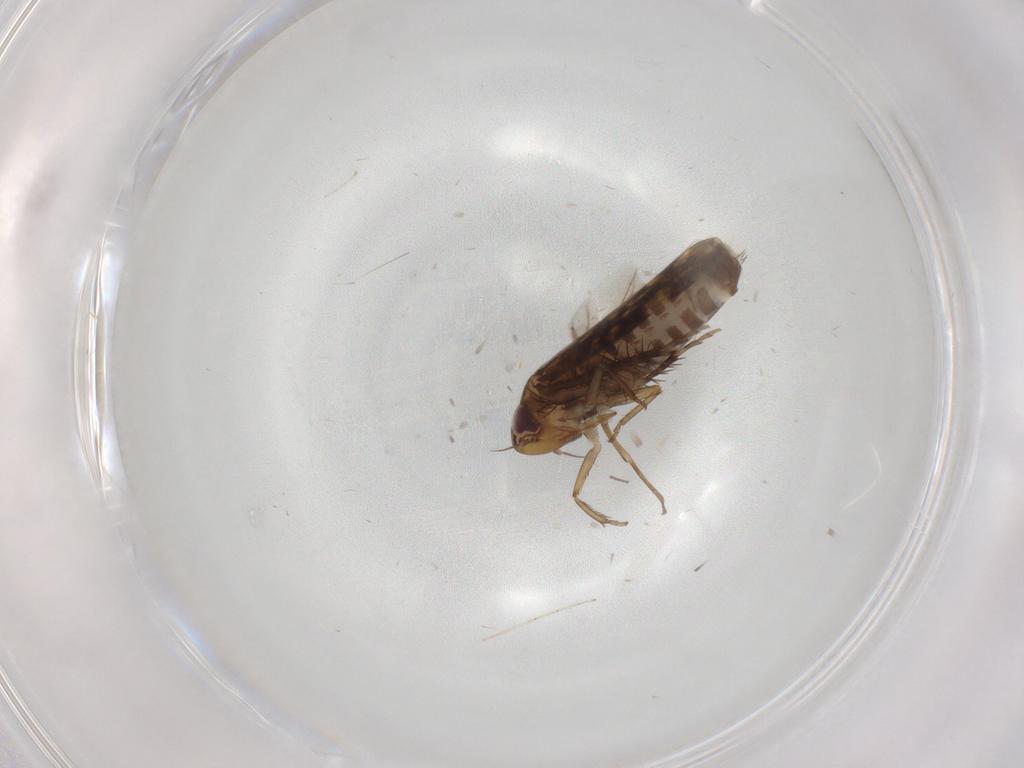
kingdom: Animalia
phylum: Arthropoda
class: Insecta
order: Hemiptera
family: Cicadellidae
